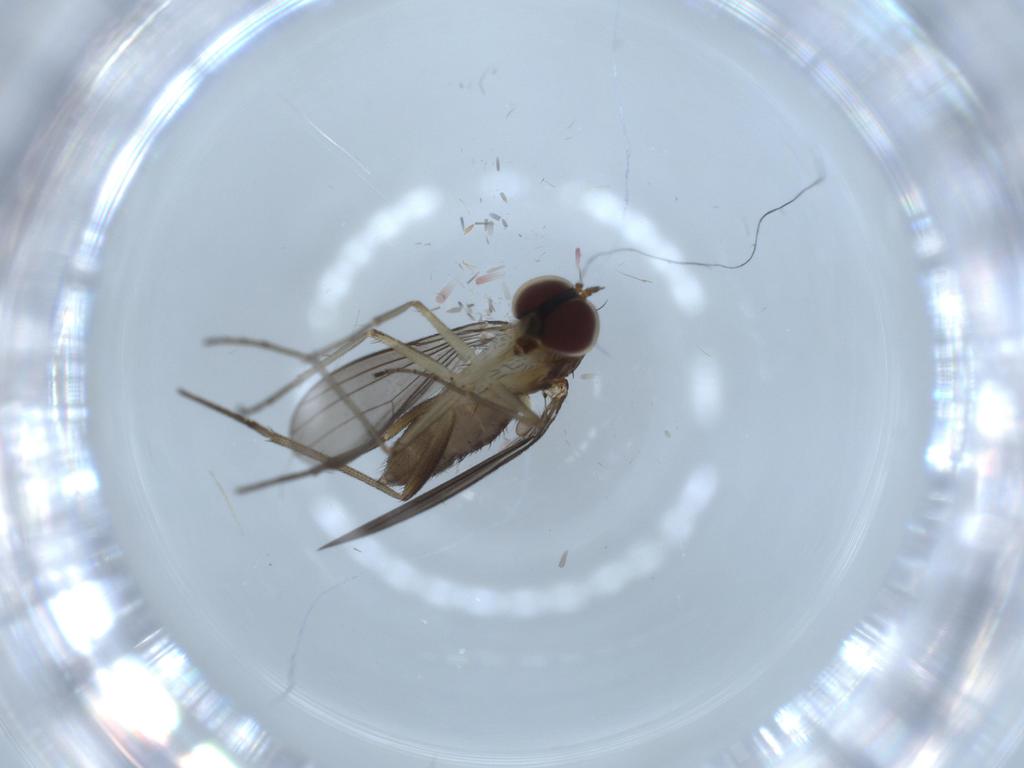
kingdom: Animalia
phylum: Arthropoda
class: Insecta
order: Diptera
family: Dolichopodidae
